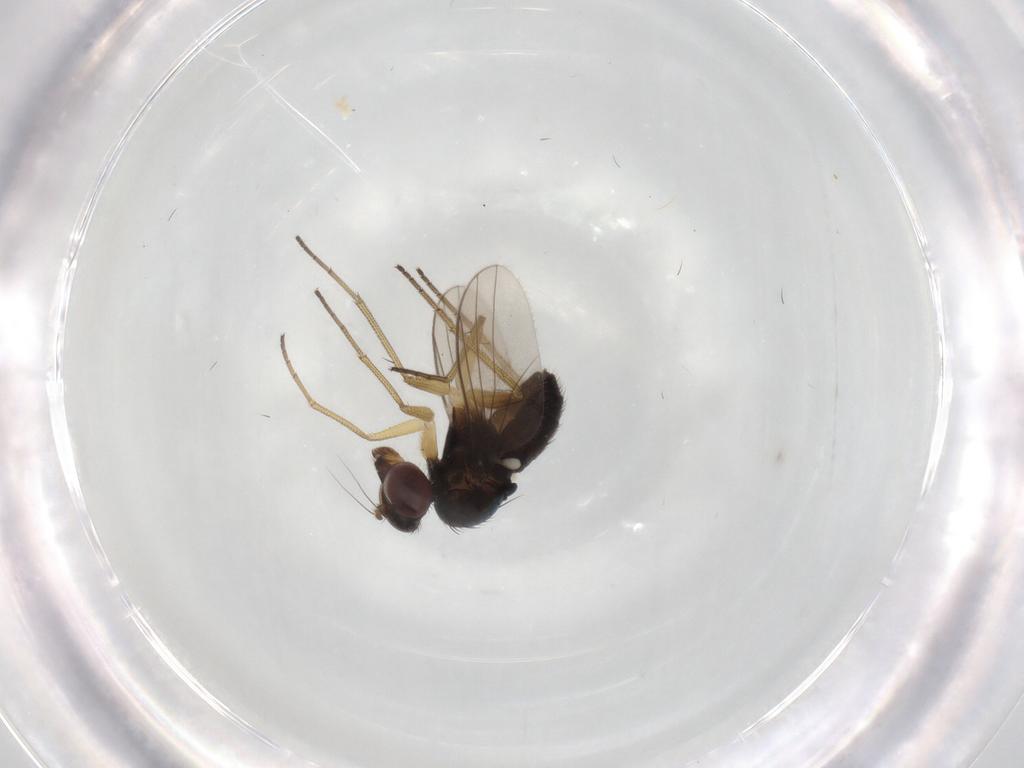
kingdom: Animalia
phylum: Arthropoda
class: Insecta
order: Diptera
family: Dolichopodidae
